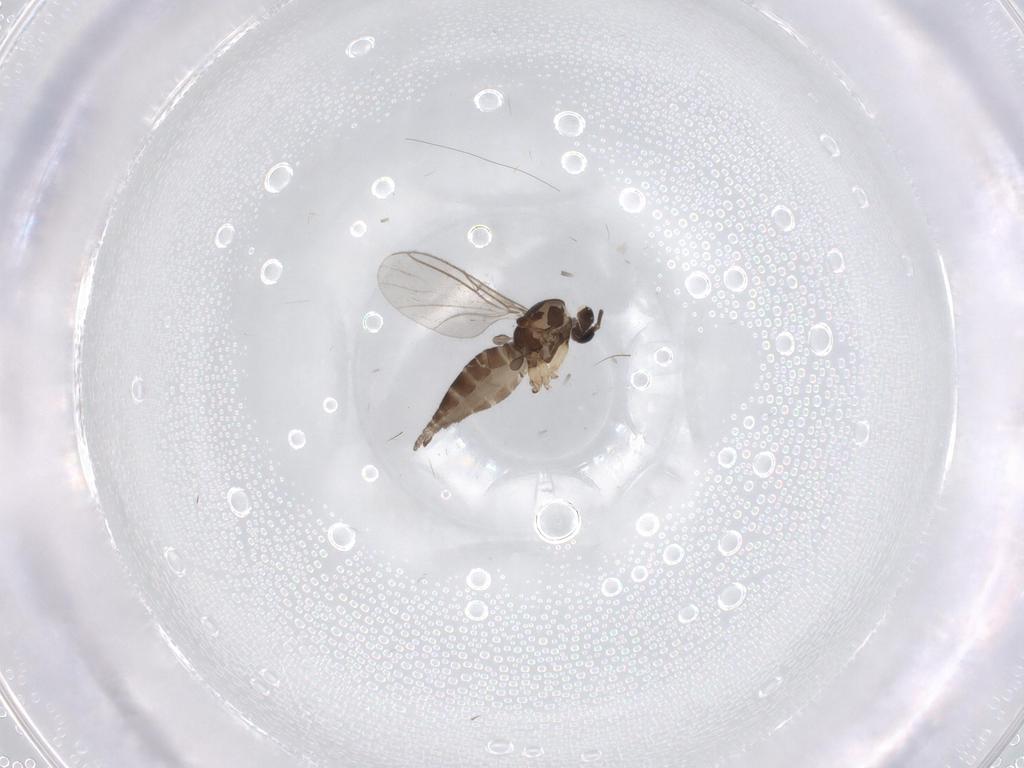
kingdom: Animalia
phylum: Arthropoda
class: Insecta
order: Diptera
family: Sciaridae
